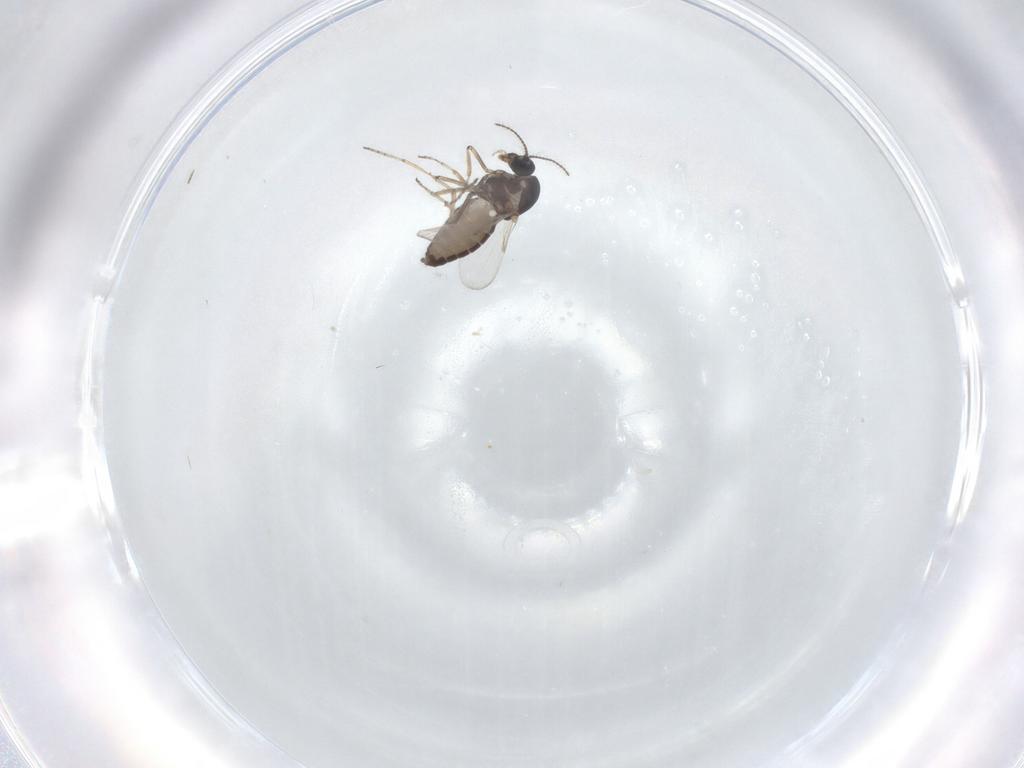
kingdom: Animalia
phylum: Arthropoda
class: Insecta
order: Diptera
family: Ceratopogonidae
